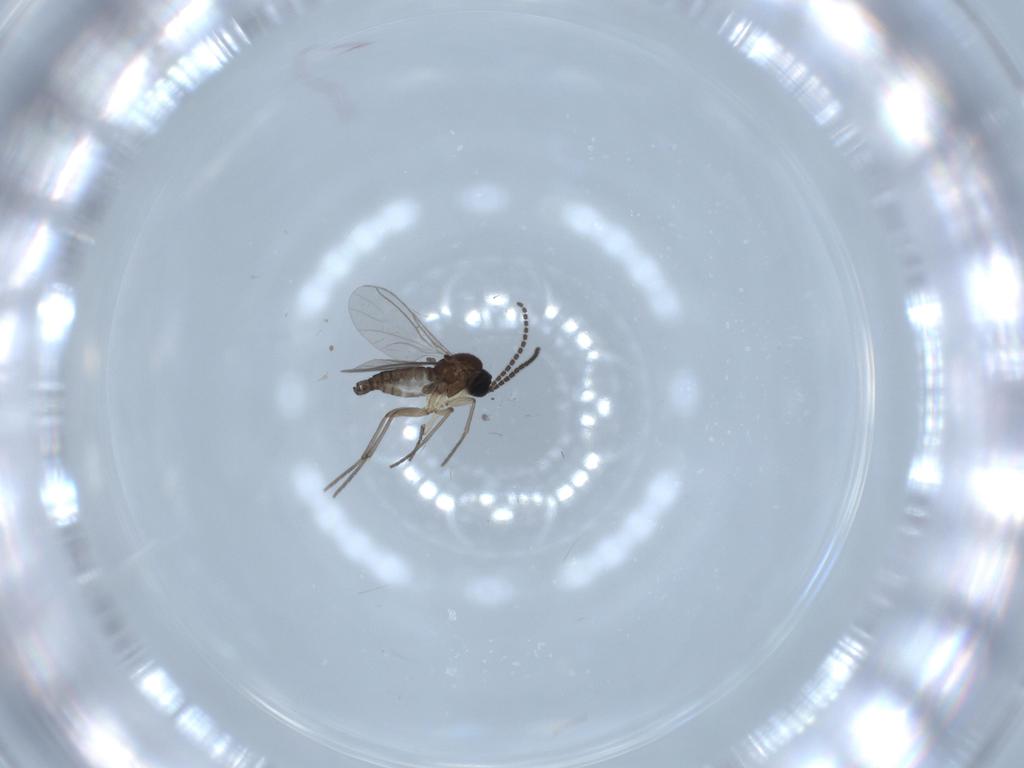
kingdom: Animalia
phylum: Arthropoda
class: Insecta
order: Diptera
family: Sciaridae
